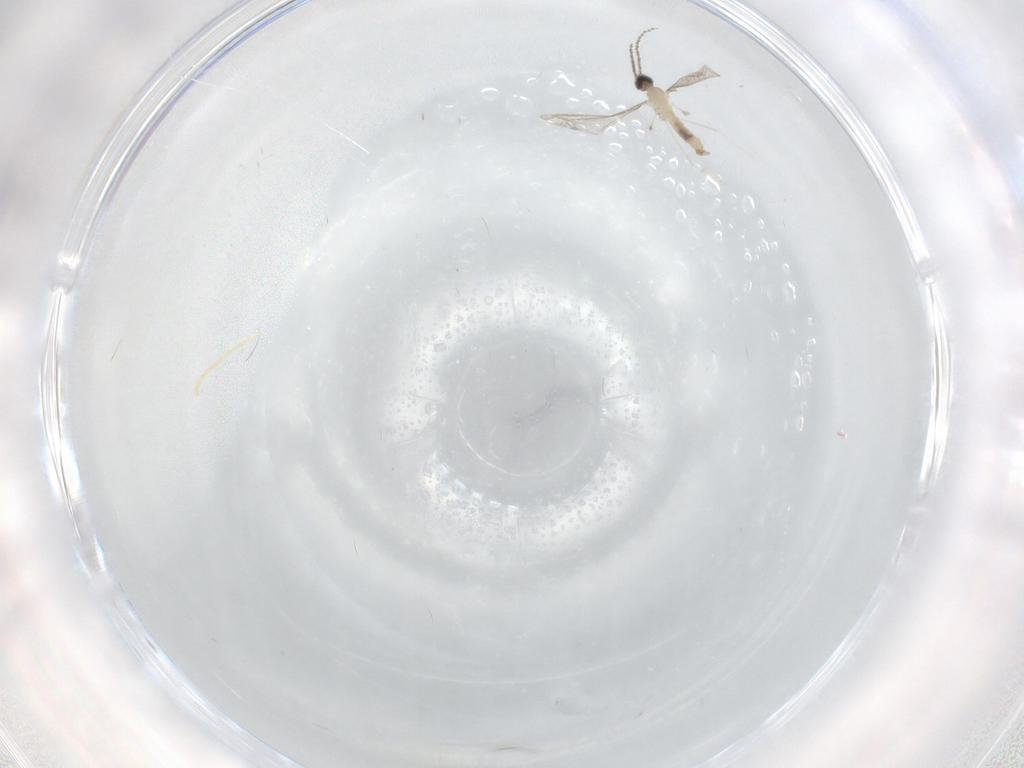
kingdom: Animalia
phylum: Arthropoda
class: Insecta
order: Diptera
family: Cecidomyiidae
